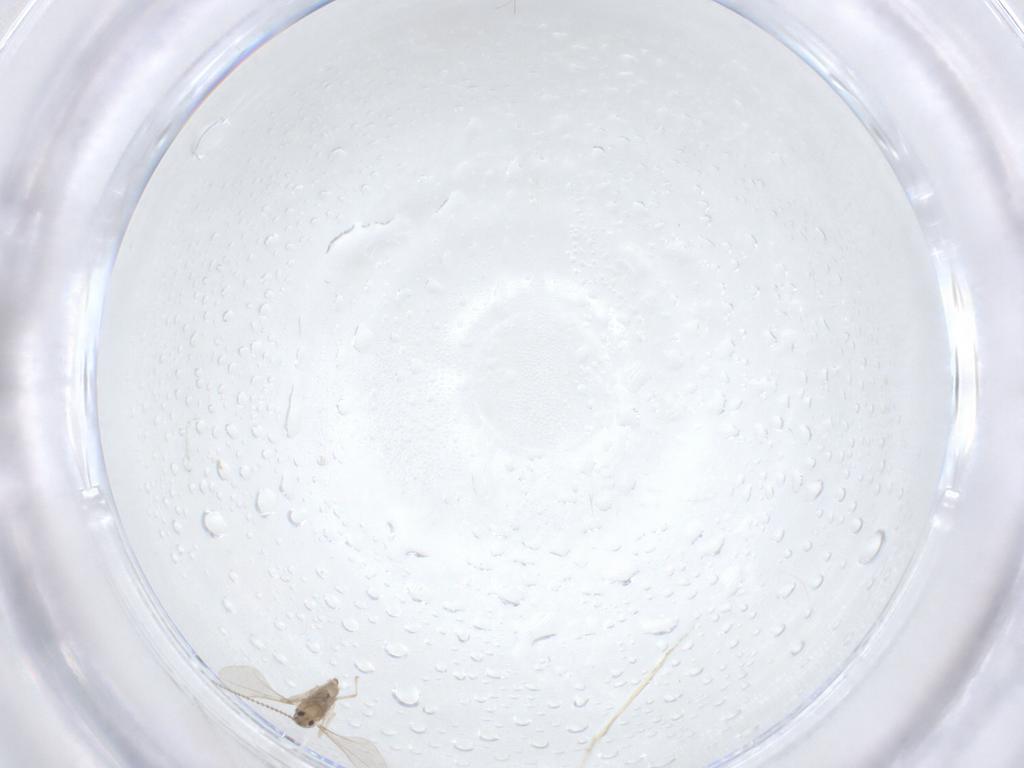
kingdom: Animalia
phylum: Arthropoda
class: Insecta
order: Diptera
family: Cecidomyiidae
